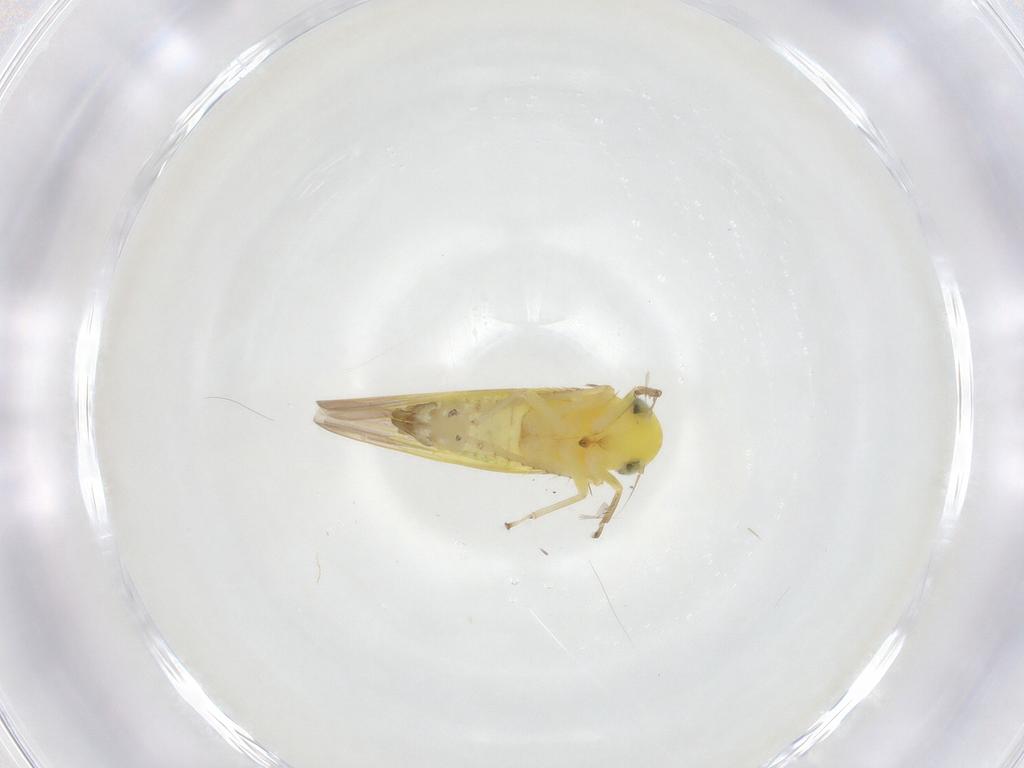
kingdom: Animalia
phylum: Arthropoda
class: Insecta
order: Hemiptera
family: Cicadellidae
